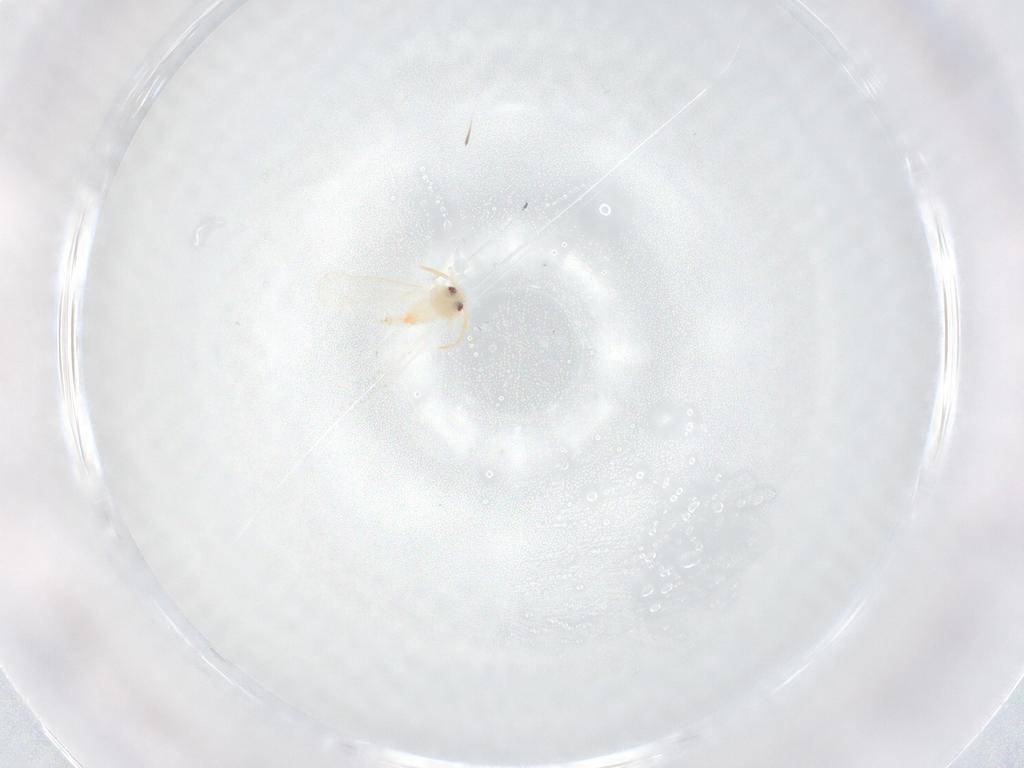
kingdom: Animalia
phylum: Arthropoda
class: Insecta
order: Hemiptera
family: Aleyrodidae
